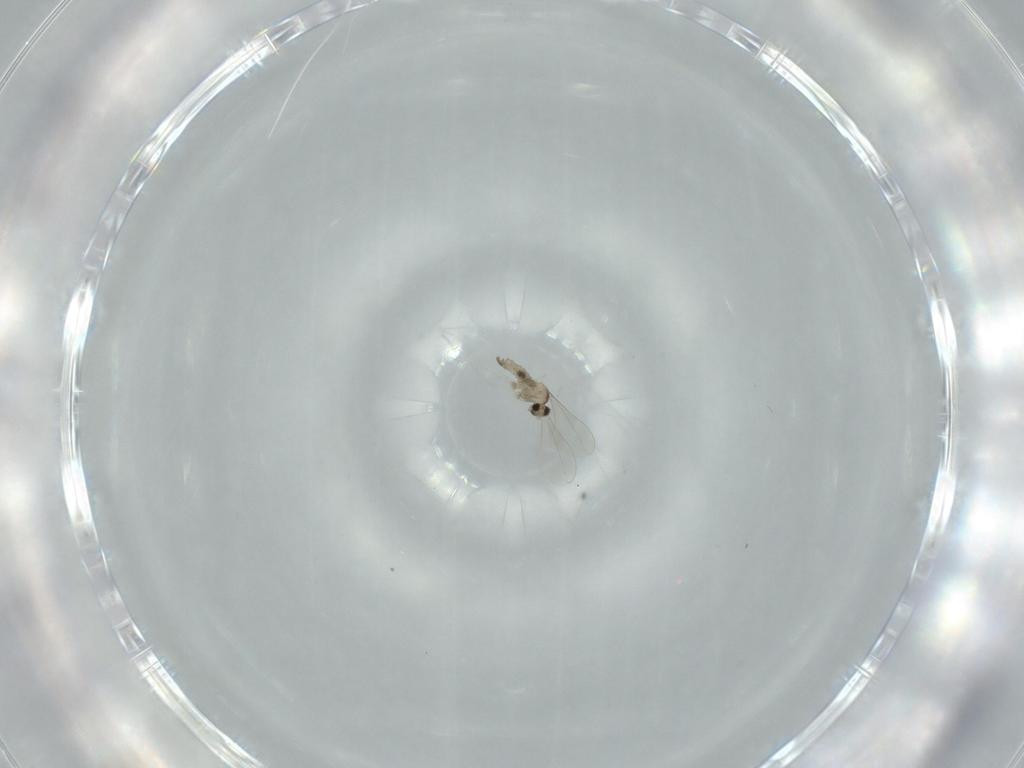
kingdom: Animalia
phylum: Arthropoda
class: Insecta
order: Diptera
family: Cecidomyiidae
